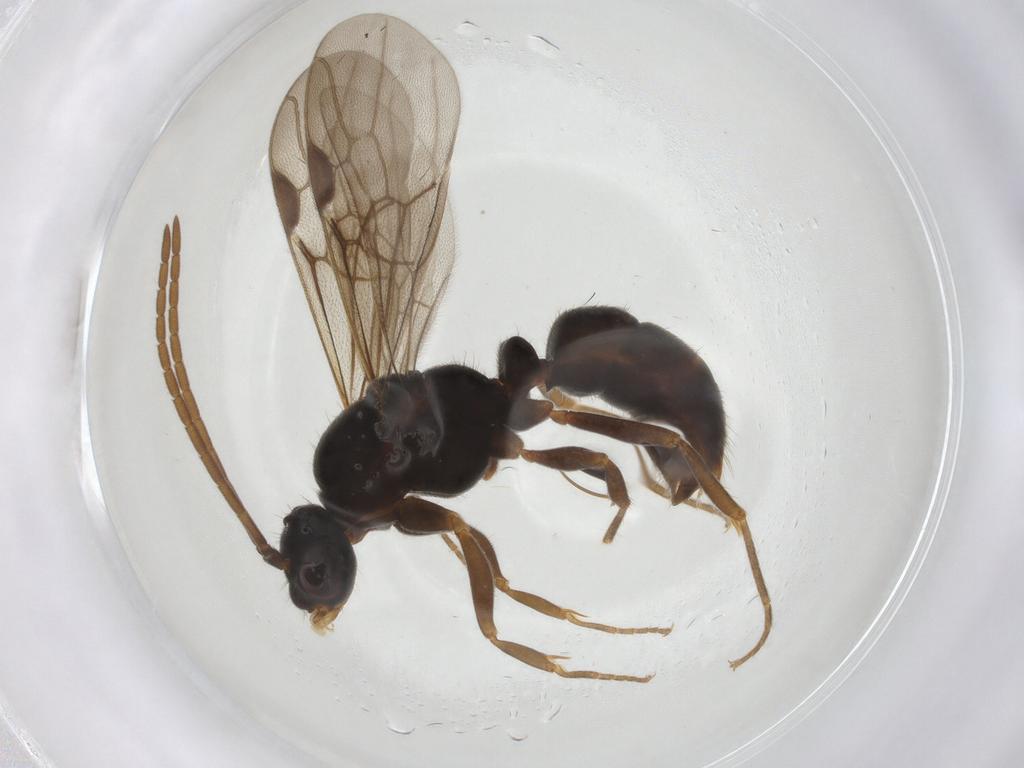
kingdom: Animalia
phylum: Arthropoda
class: Insecta
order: Hymenoptera
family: Formicidae
